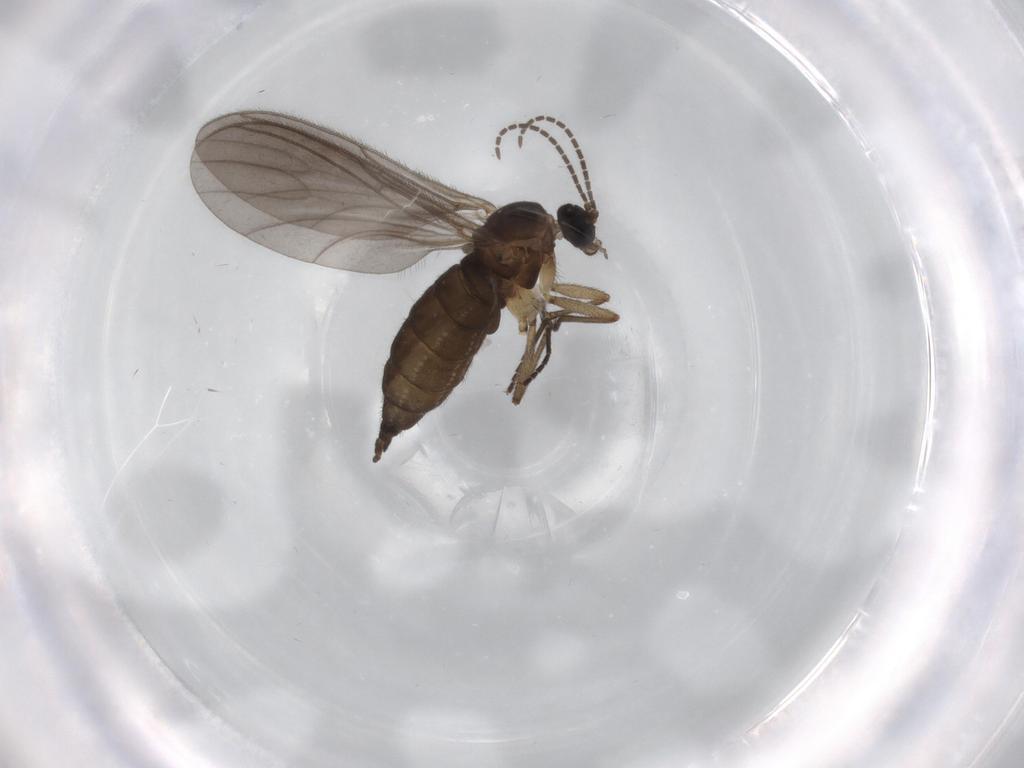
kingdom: Animalia
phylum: Arthropoda
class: Insecta
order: Diptera
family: Sciaridae
